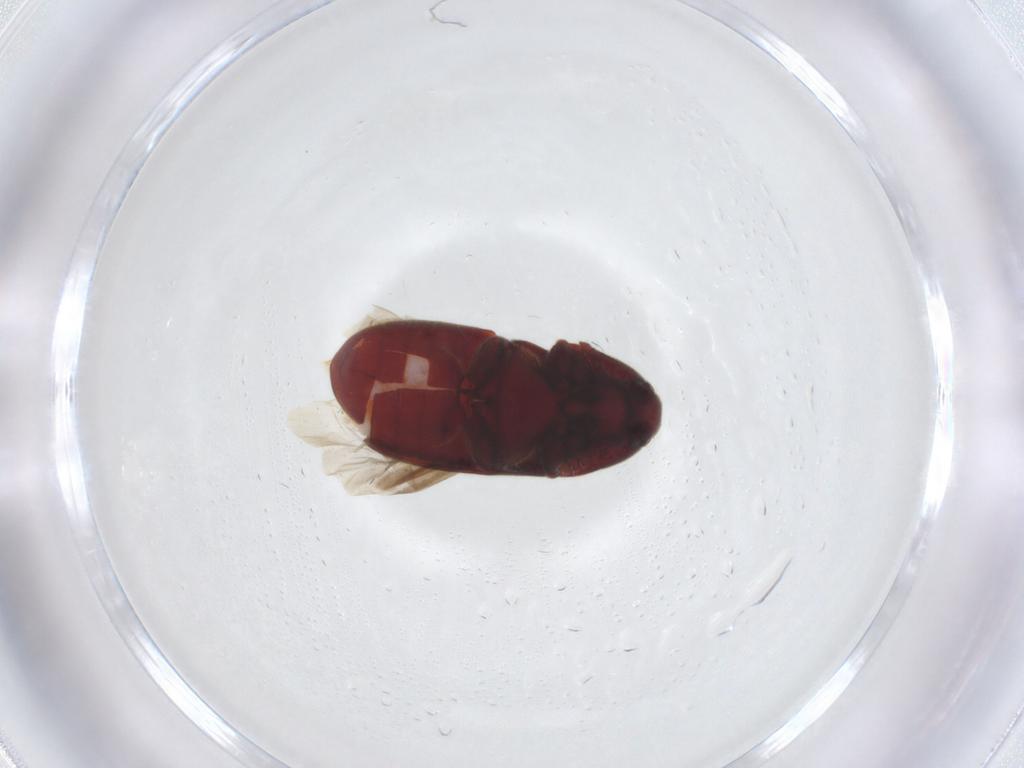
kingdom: Animalia
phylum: Arthropoda
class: Insecta
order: Coleoptera
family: Throscidae
